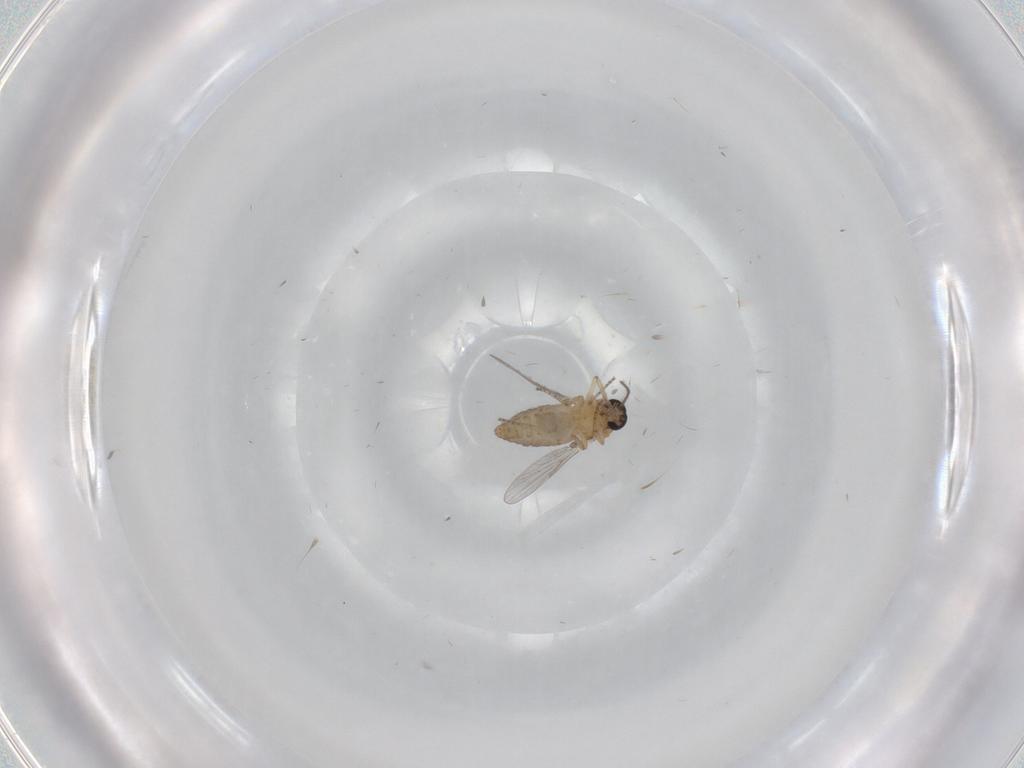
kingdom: Animalia
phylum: Arthropoda
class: Insecta
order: Diptera
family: Ceratopogonidae
